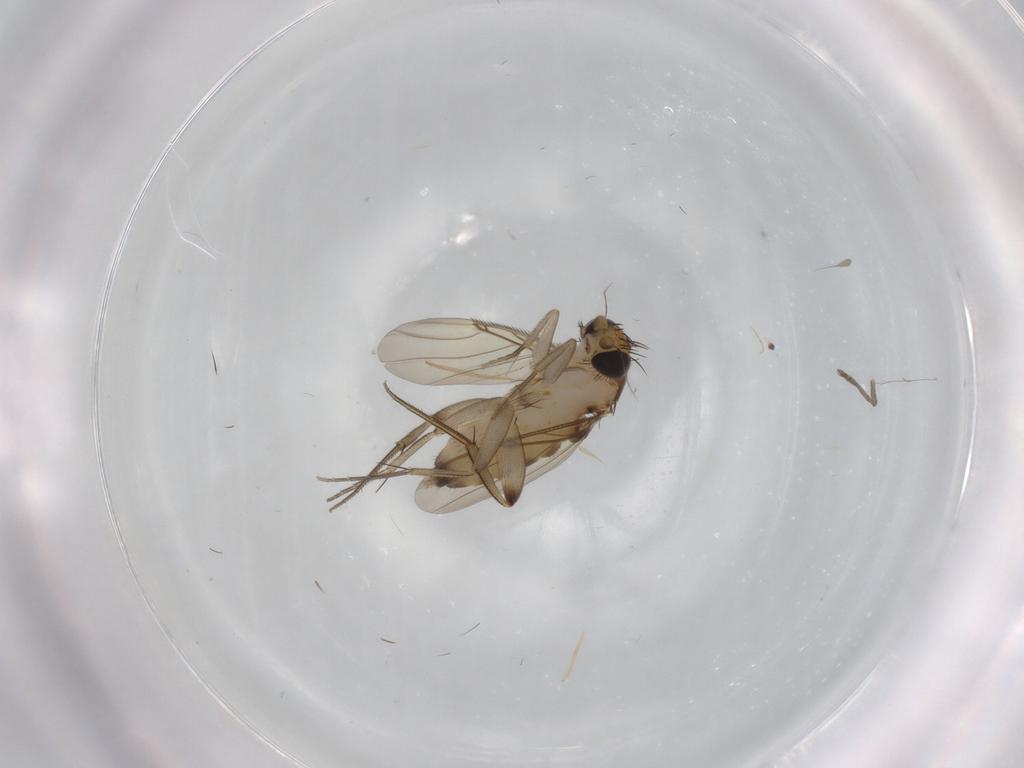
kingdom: Animalia
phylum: Arthropoda
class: Insecta
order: Diptera
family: Phoridae
